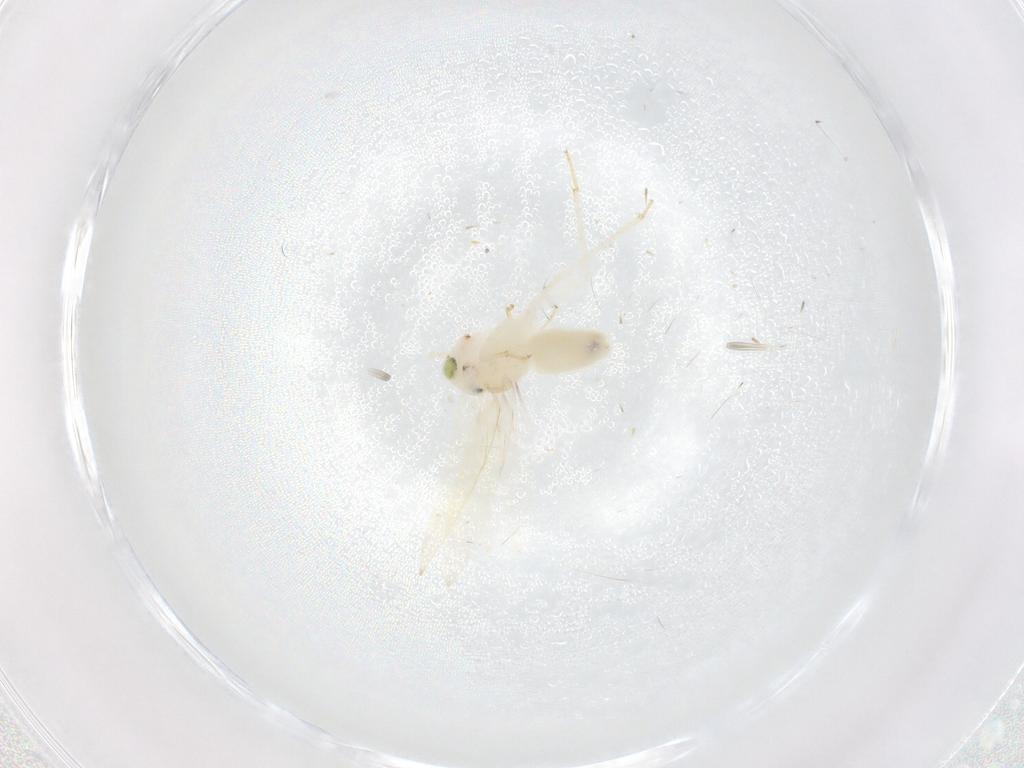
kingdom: Animalia
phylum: Arthropoda
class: Insecta
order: Psocodea
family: Lepidopsocidae
